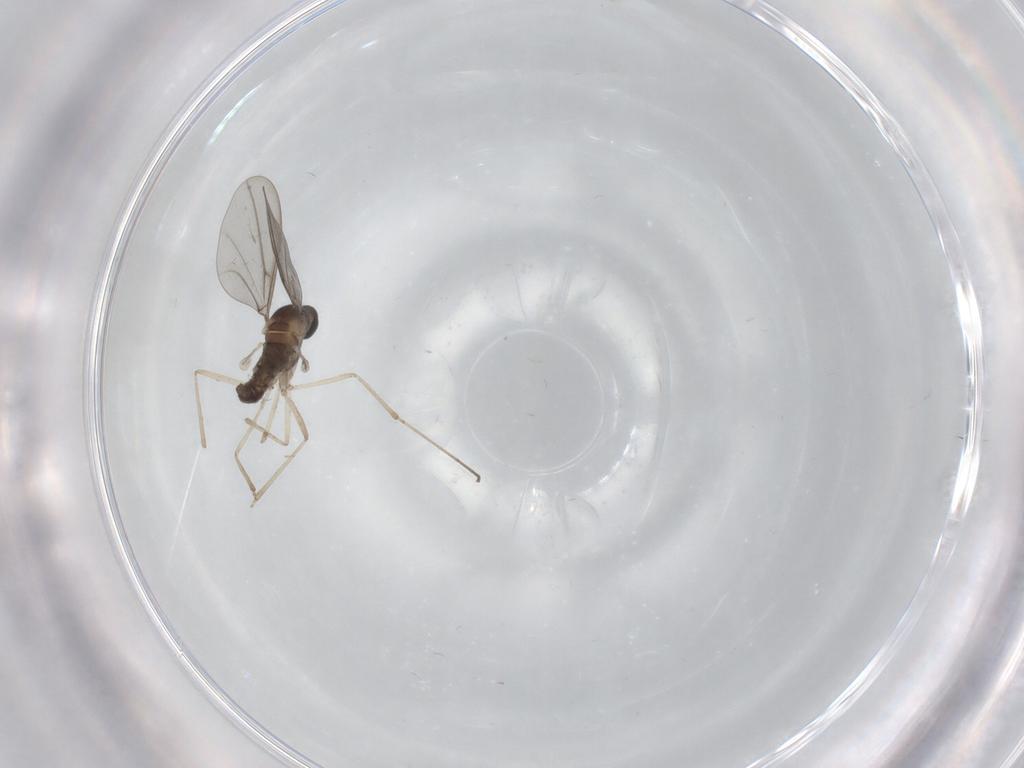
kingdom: Animalia
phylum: Arthropoda
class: Insecta
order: Diptera
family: Cecidomyiidae
